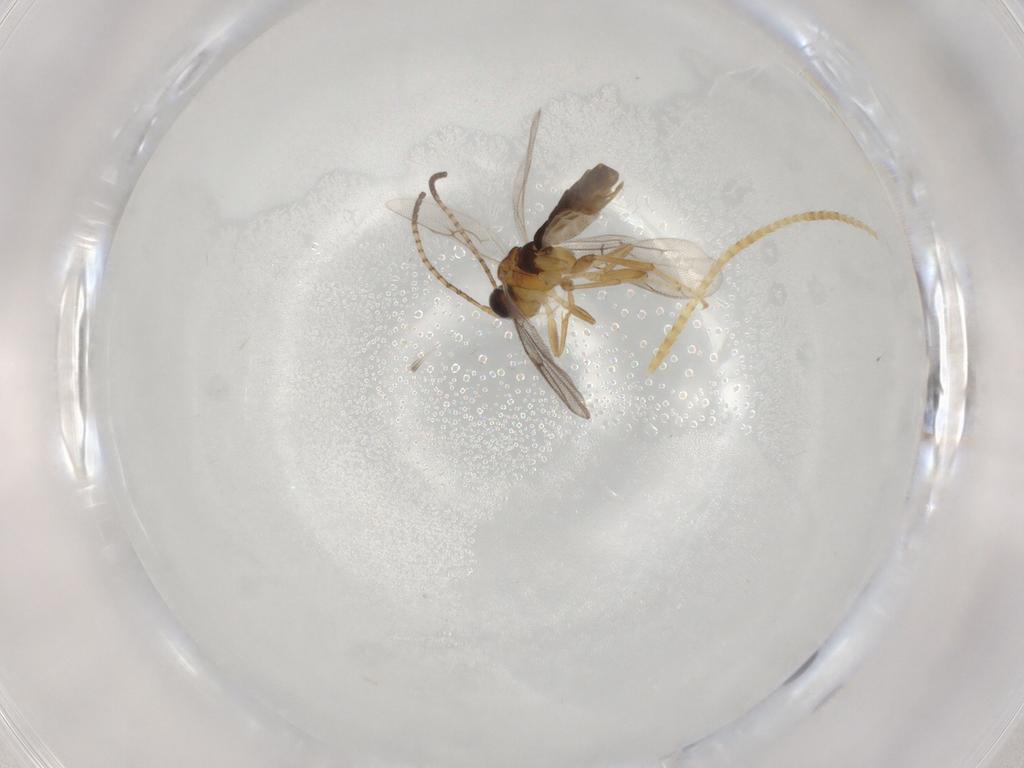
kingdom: Animalia
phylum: Arthropoda
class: Insecta
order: Hymenoptera
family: Ichneumonidae
